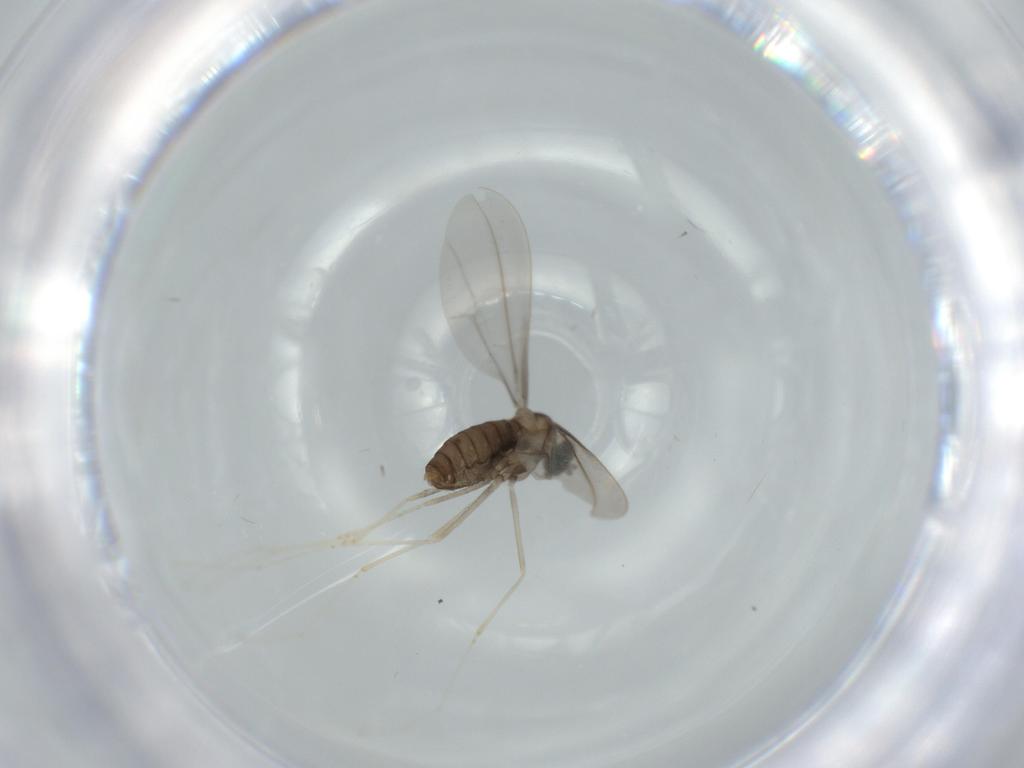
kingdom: Animalia
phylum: Arthropoda
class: Insecta
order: Diptera
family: Cecidomyiidae
